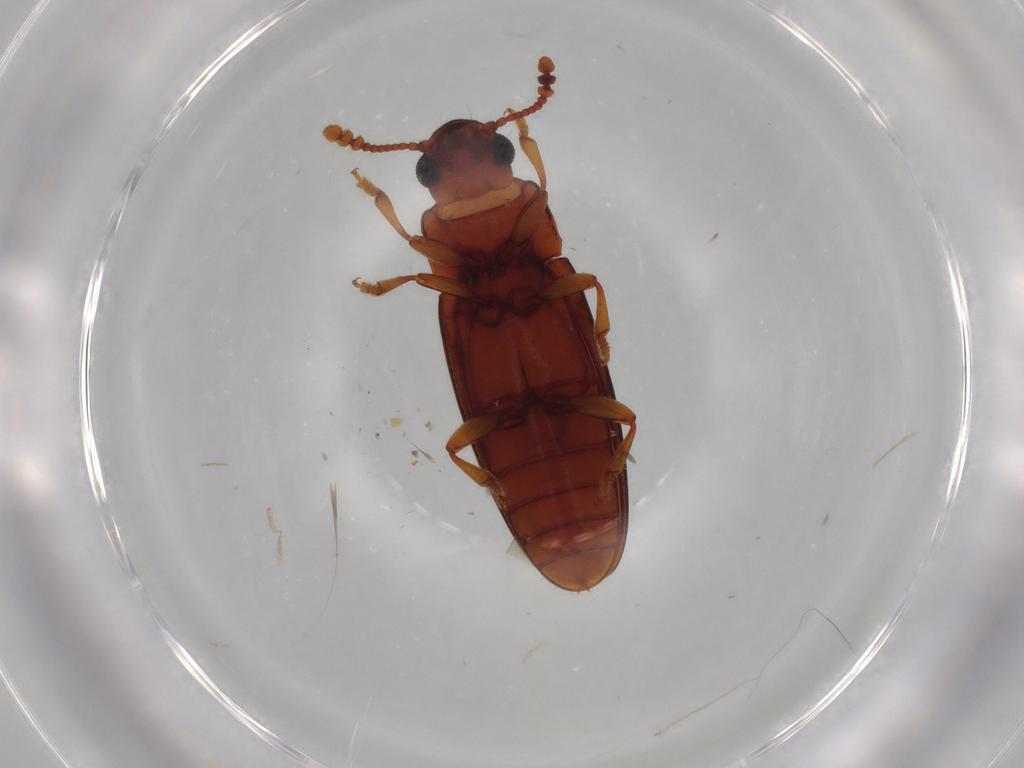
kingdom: Animalia
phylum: Arthropoda
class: Insecta
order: Coleoptera
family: Erotylidae
